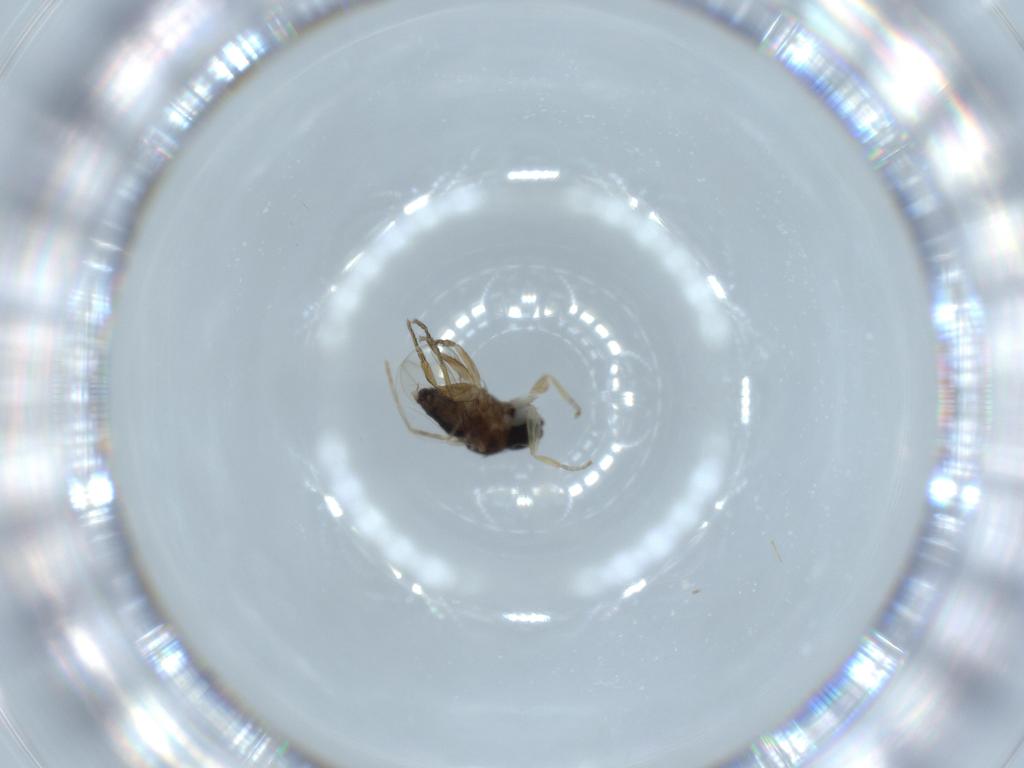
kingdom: Animalia
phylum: Arthropoda
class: Insecta
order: Diptera
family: Psychodidae
